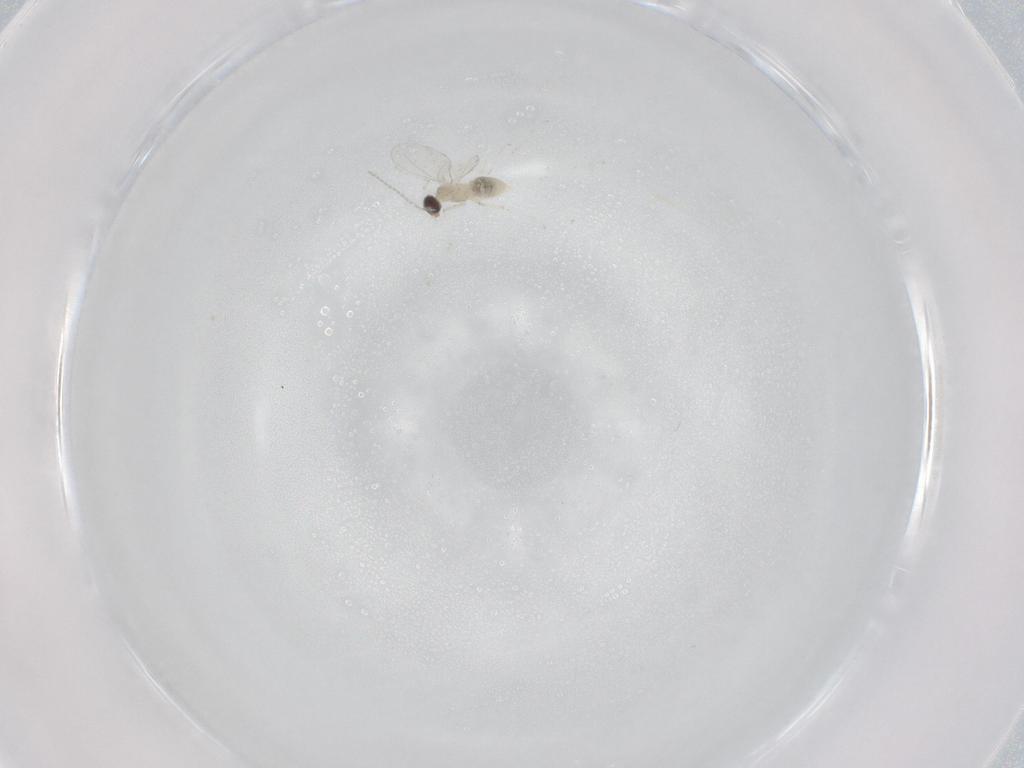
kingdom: Animalia
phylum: Arthropoda
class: Insecta
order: Diptera
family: Cecidomyiidae
